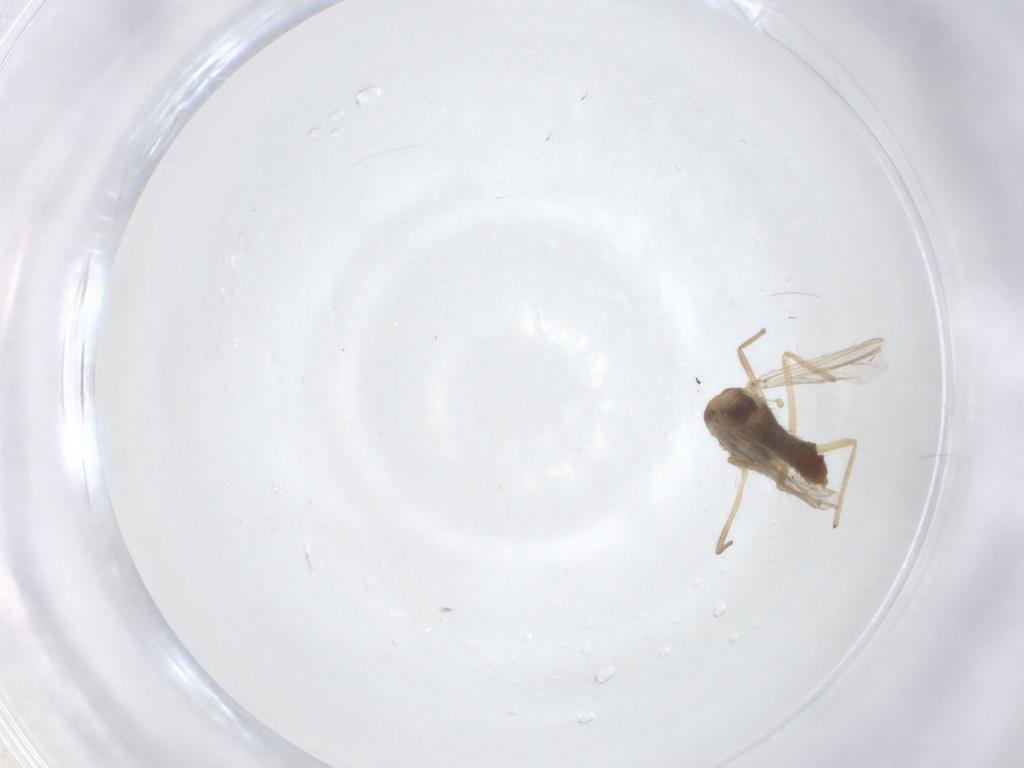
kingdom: Animalia
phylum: Arthropoda
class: Insecta
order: Diptera
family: Chironomidae
